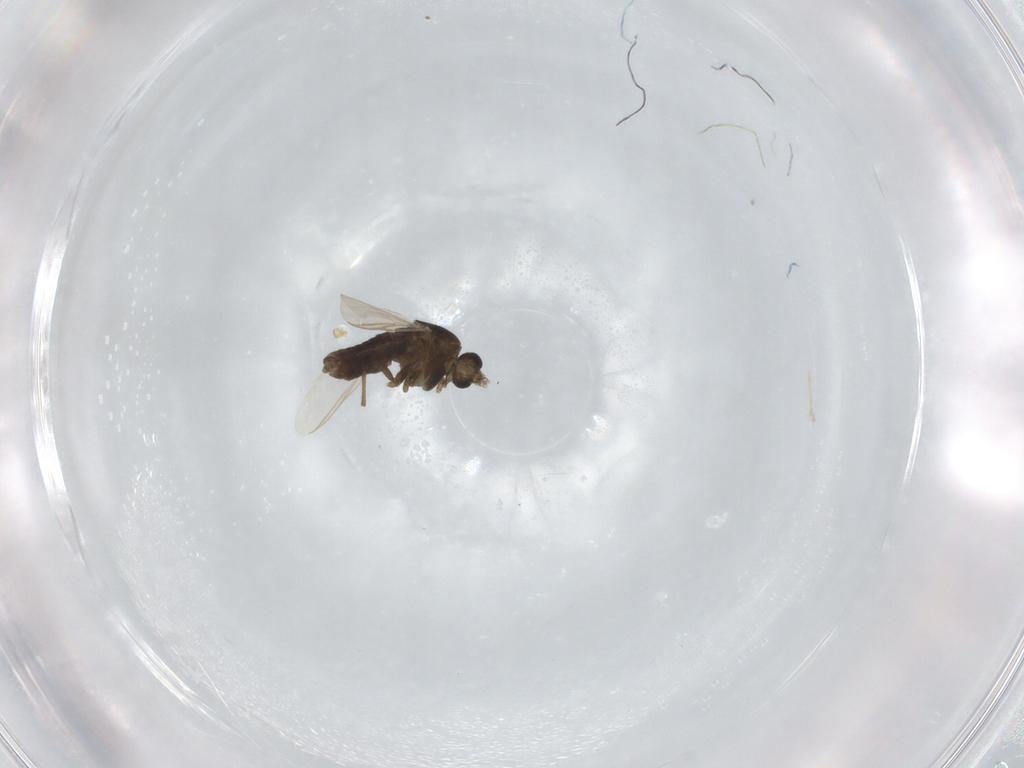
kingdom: Animalia
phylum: Arthropoda
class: Insecta
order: Diptera
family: Chironomidae
